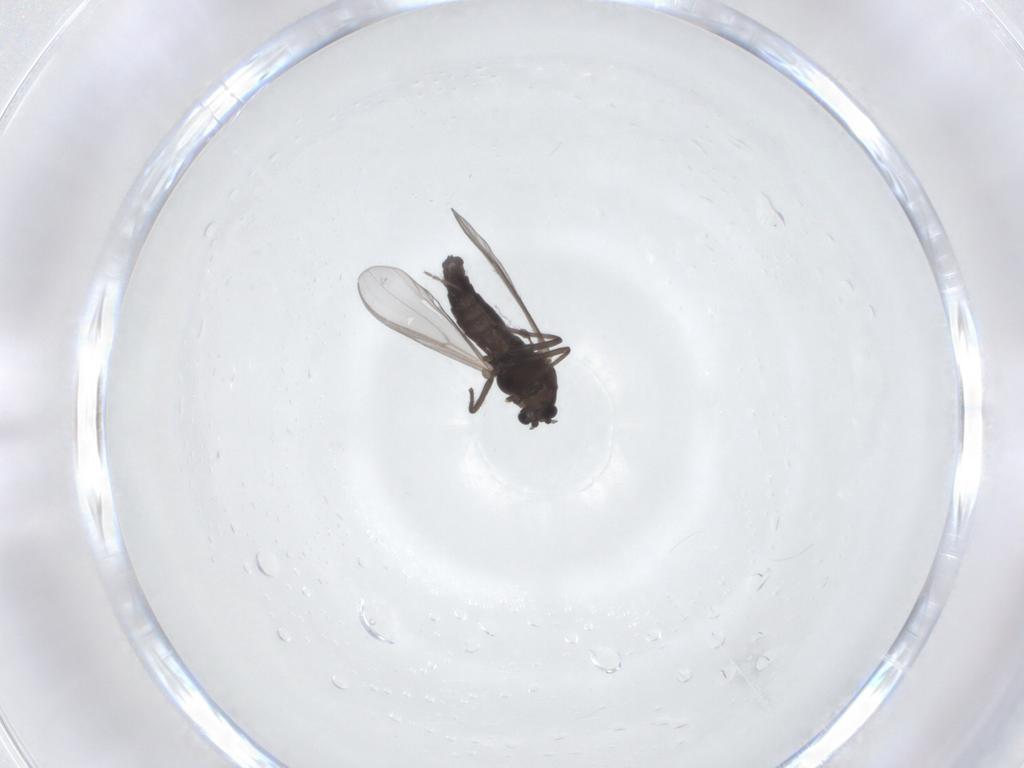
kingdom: Animalia
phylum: Arthropoda
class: Insecta
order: Diptera
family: Chironomidae
